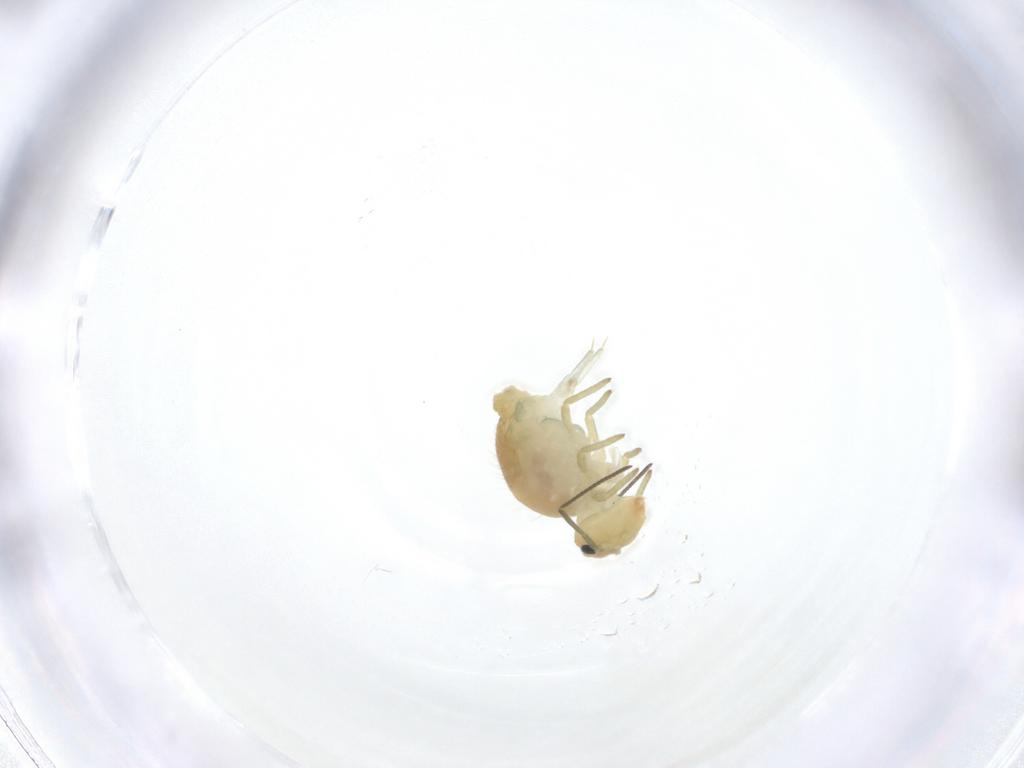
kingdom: Animalia
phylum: Arthropoda
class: Collembola
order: Symphypleona
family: Sminthuridae
